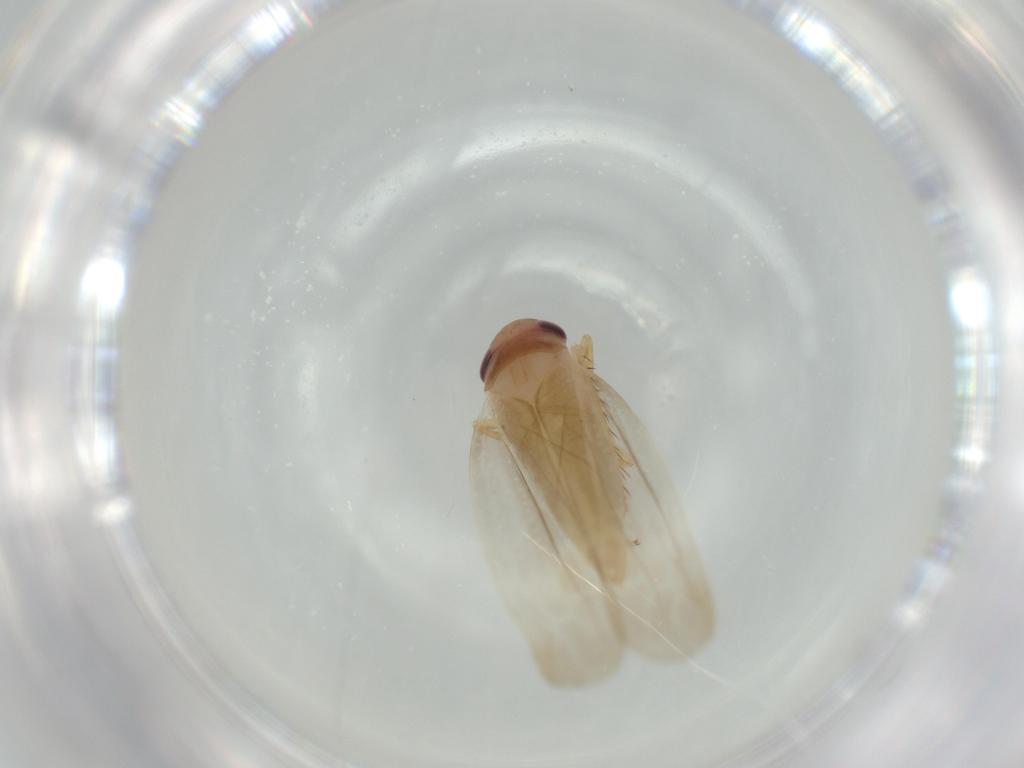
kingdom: Animalia
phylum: Arthropoda
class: Insecta
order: Hemiptera
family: Cicadellidae
